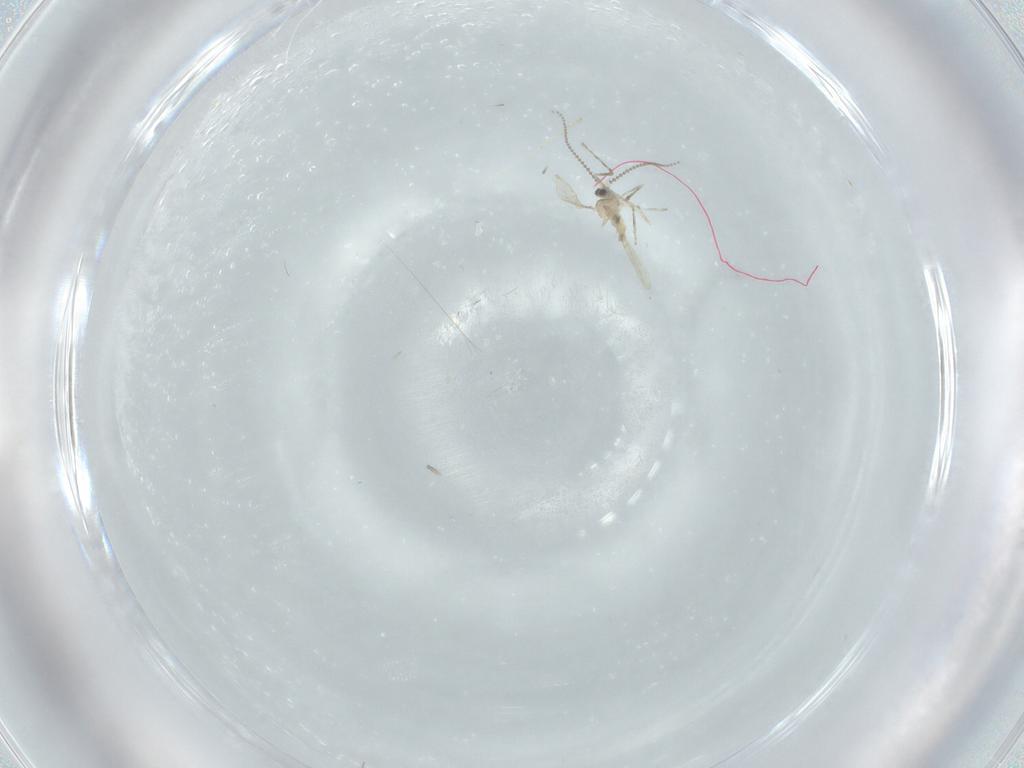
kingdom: Animalia
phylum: Arthropoda
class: Insecta
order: Diptera
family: Cecidomyiidae
